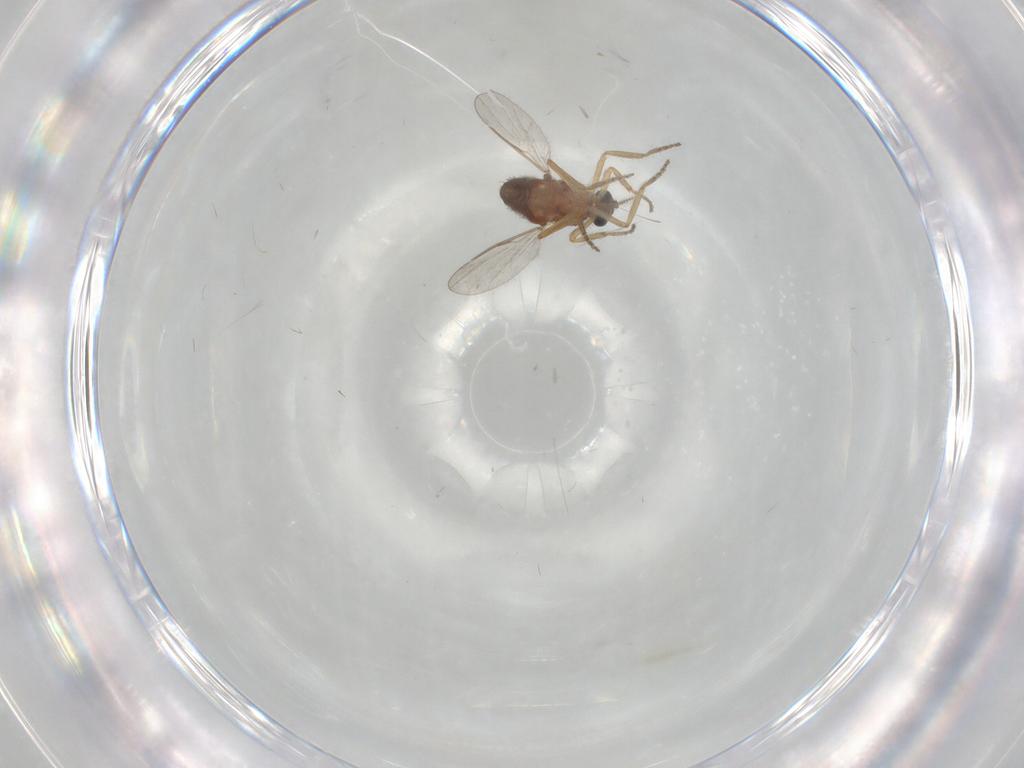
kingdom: Animalia
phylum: Arthropoda
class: Insecta
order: Diptera
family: Ceratopogonidae
